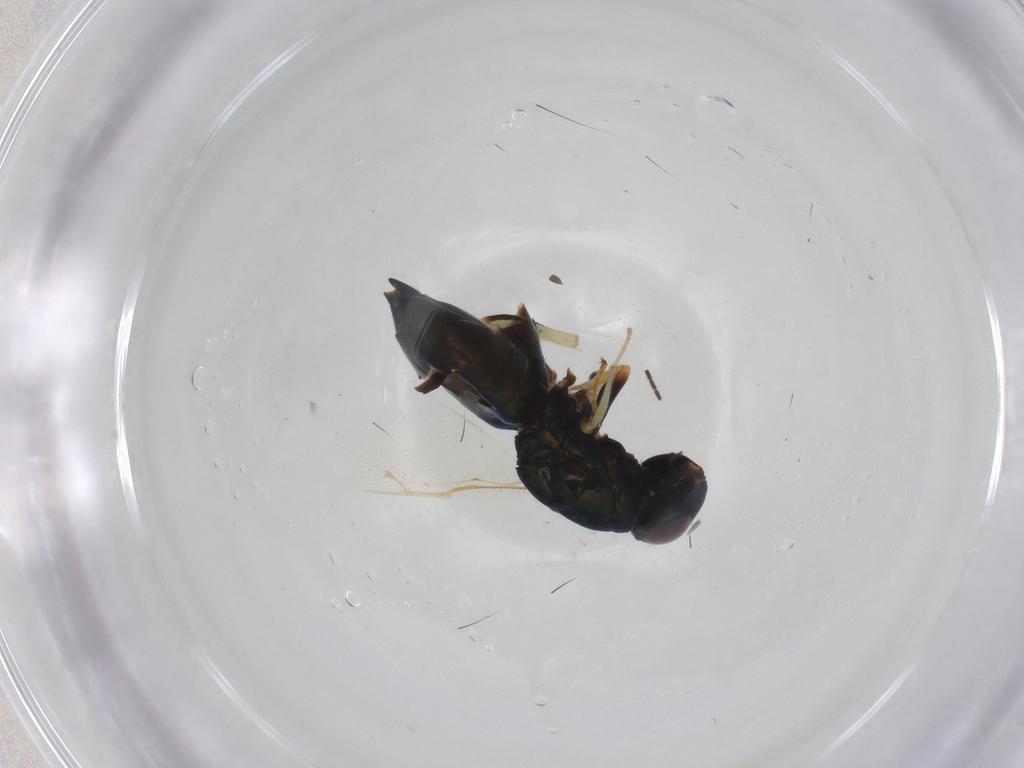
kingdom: Animalia
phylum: Arthropoda
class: Insecta
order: Hymenoptera
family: Pteromalidae
